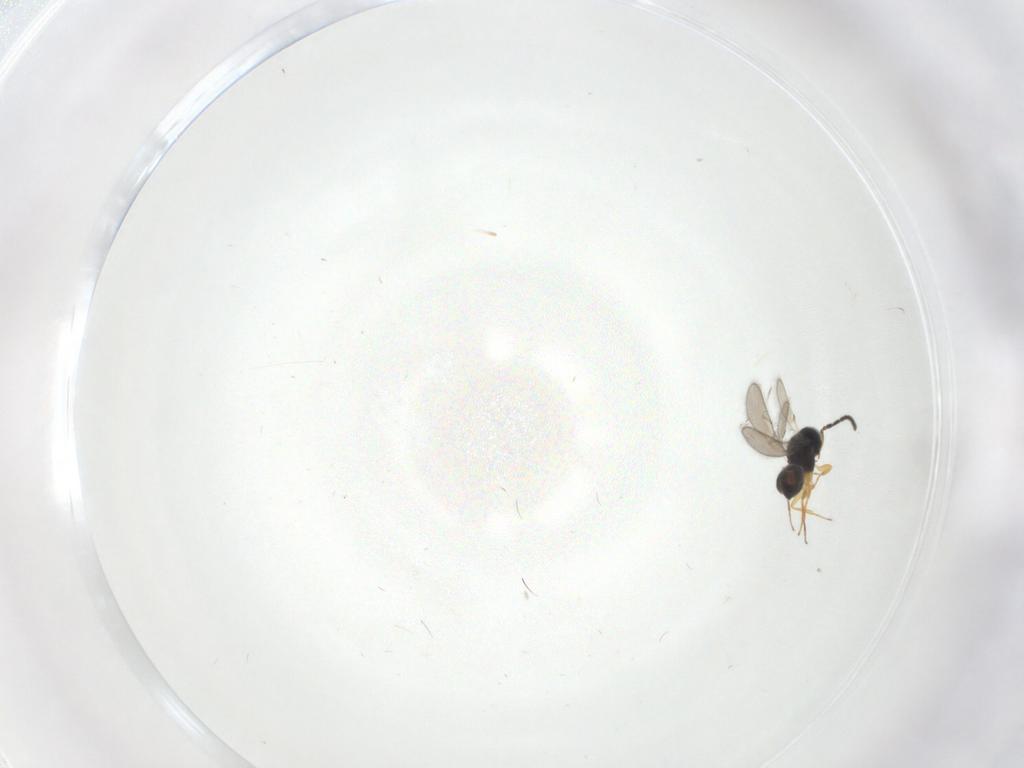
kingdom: Animalia
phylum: Arthropoda
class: Insecta
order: Hymenoptera
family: Scelionidae
